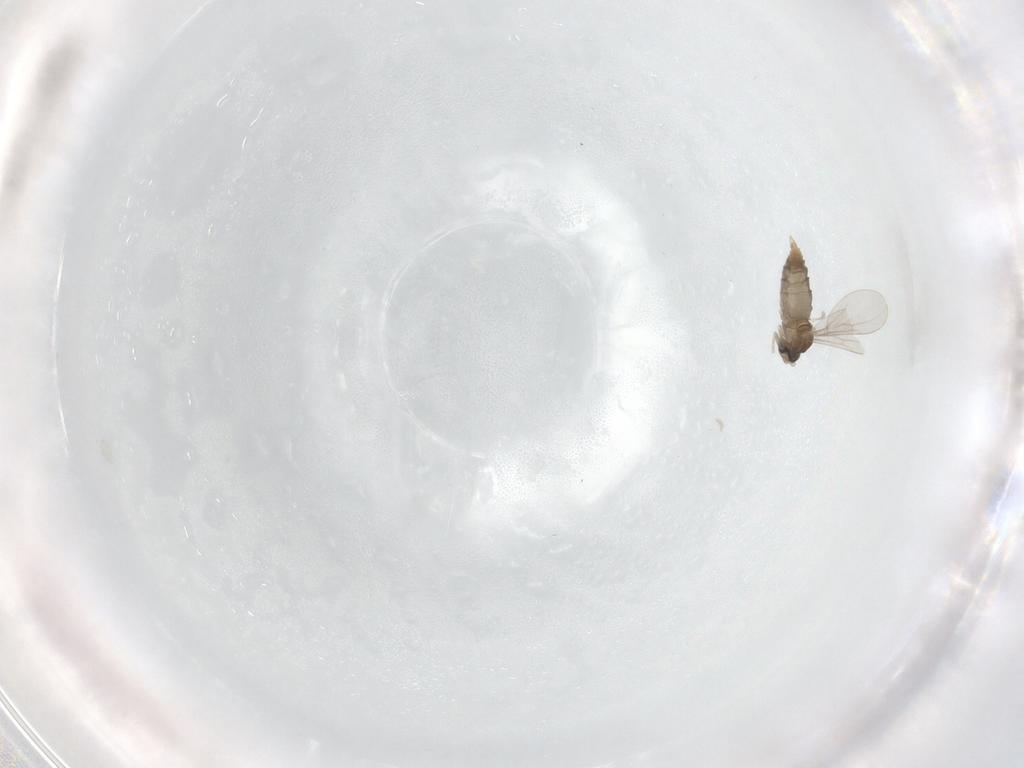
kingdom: Animalia
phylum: Arthropoda
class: Insecta
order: Diptera
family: Cecidomyiidae
